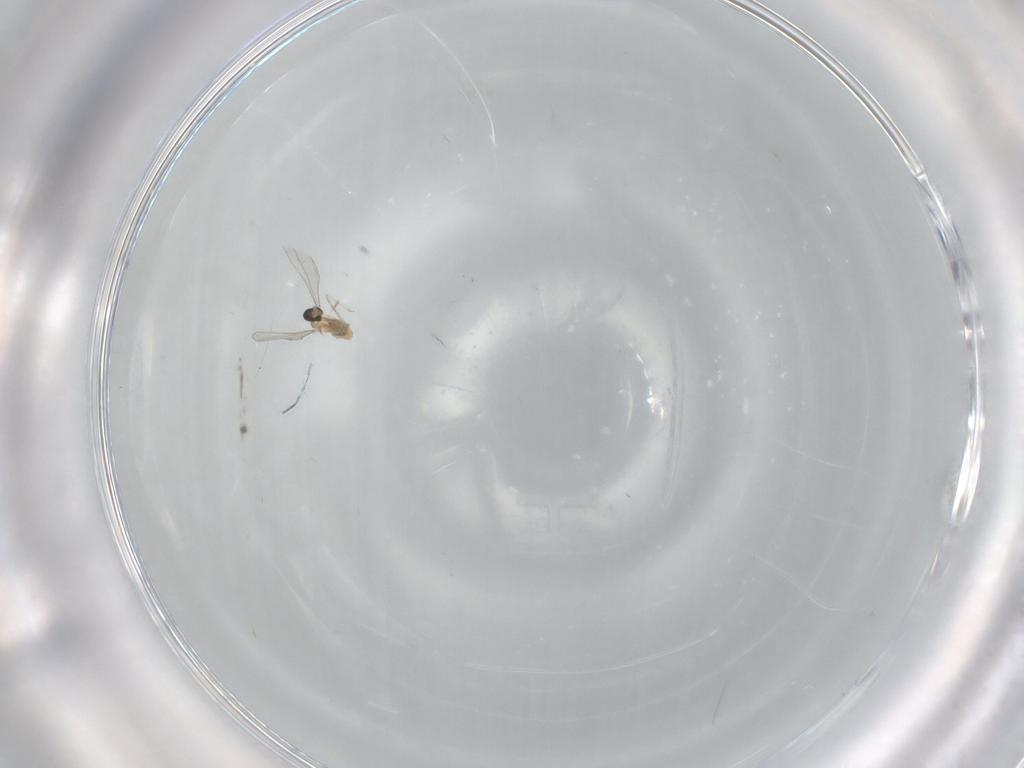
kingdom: Animalia
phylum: Arthropoda
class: Insecta
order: Diptera
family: Cecidomyiidae
